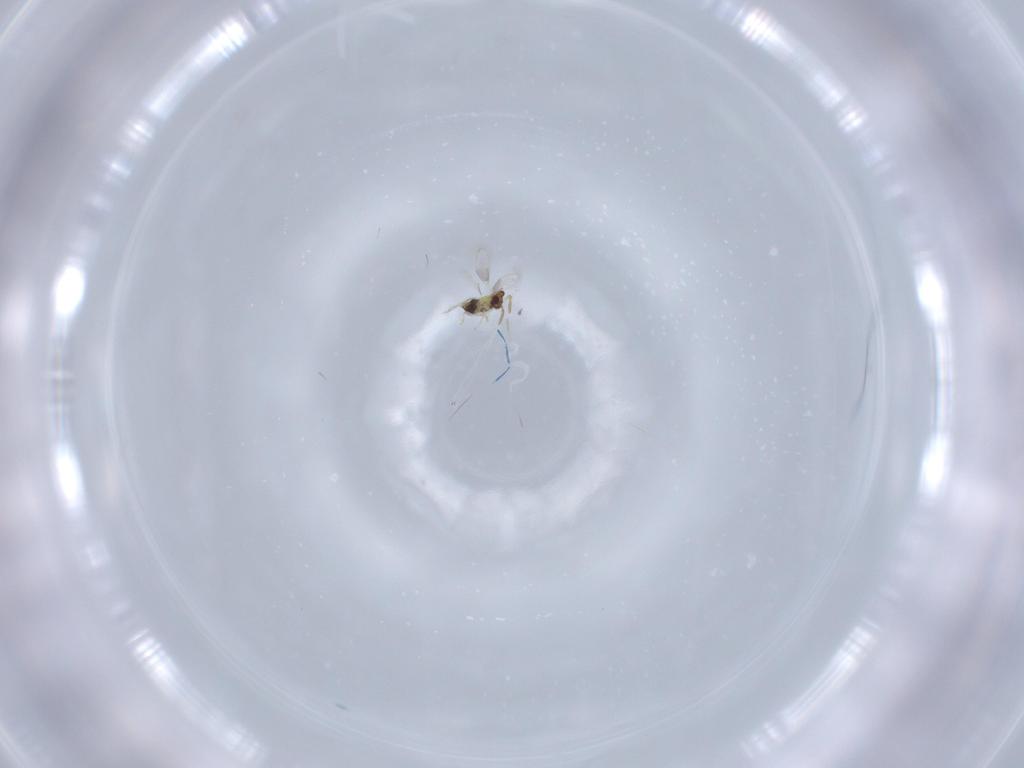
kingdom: Animalia
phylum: Arthropoda
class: Insecta
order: Hymenoptera
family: Aphelinidae
